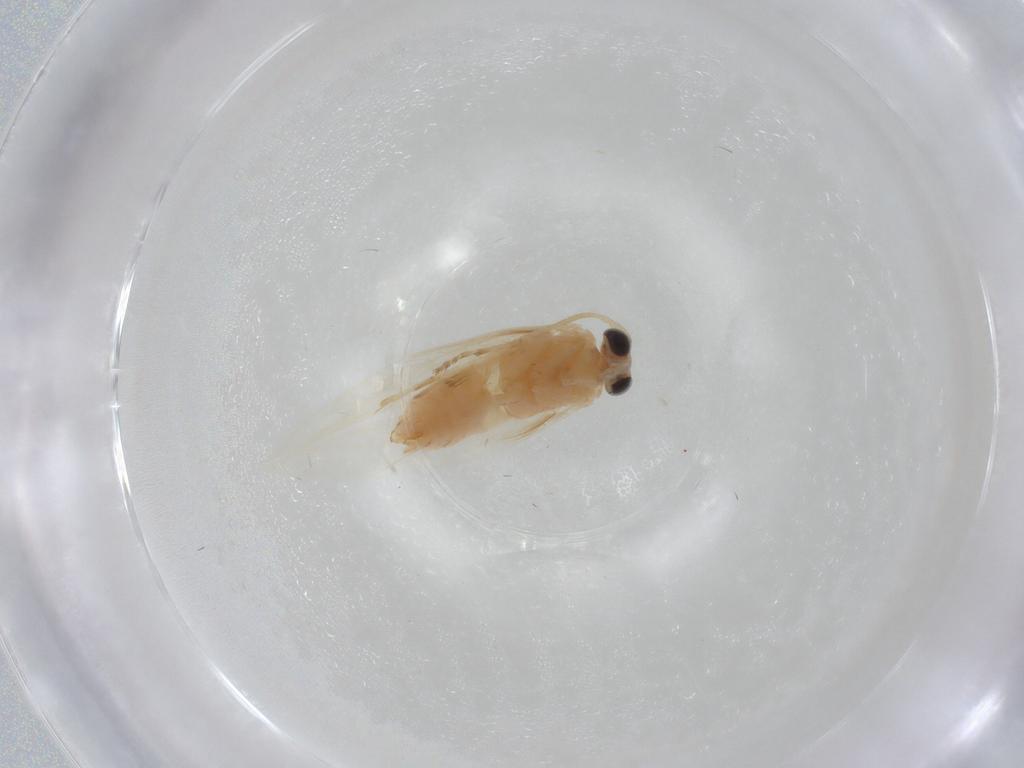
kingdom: Animalia
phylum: Arthropoda
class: Insecta
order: Lepidoptera
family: Nepticulidae
